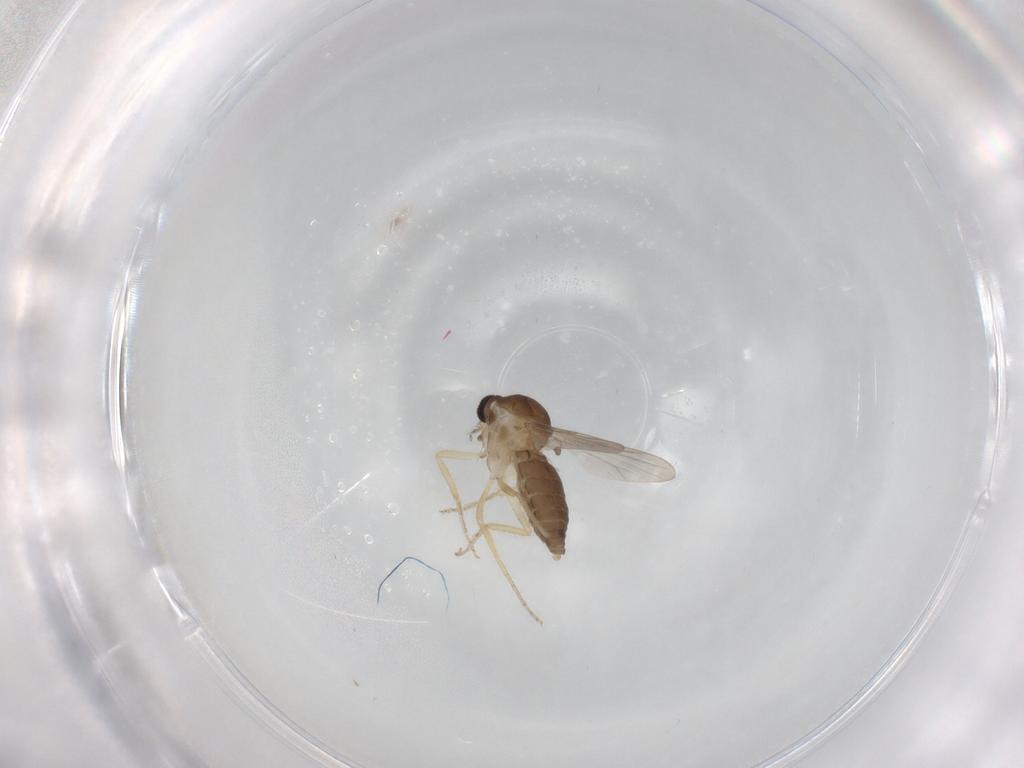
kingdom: Animalia
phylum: Arthropoda
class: Insecta
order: Diptera
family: Ceratopogonidae
